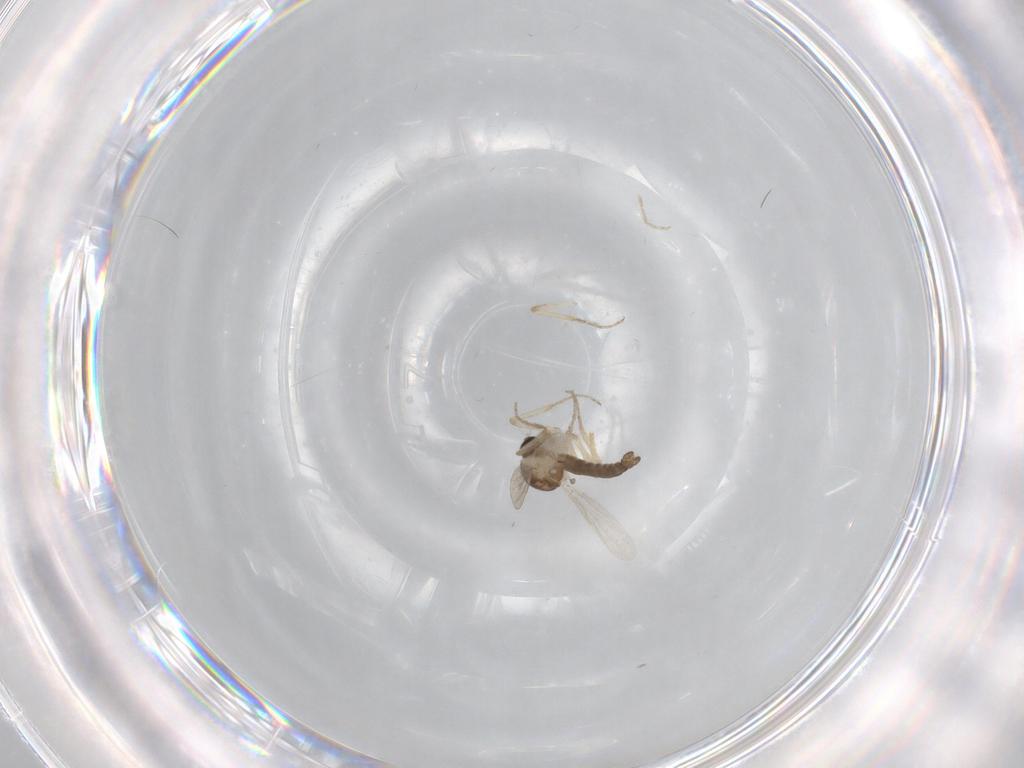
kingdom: Animalia
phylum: Arthropoda
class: Insecta
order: Diptera
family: Ceratopogonidae
